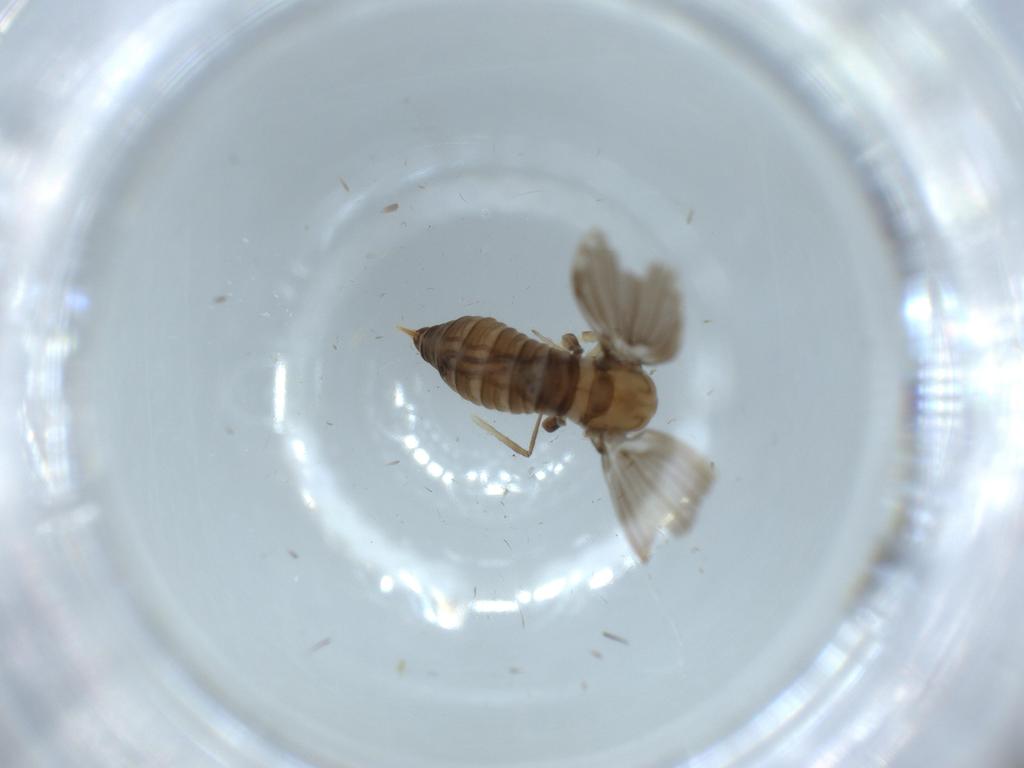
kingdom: Animalia
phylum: Arthropoda
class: Insecta
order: Diptera
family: Psychodidae
